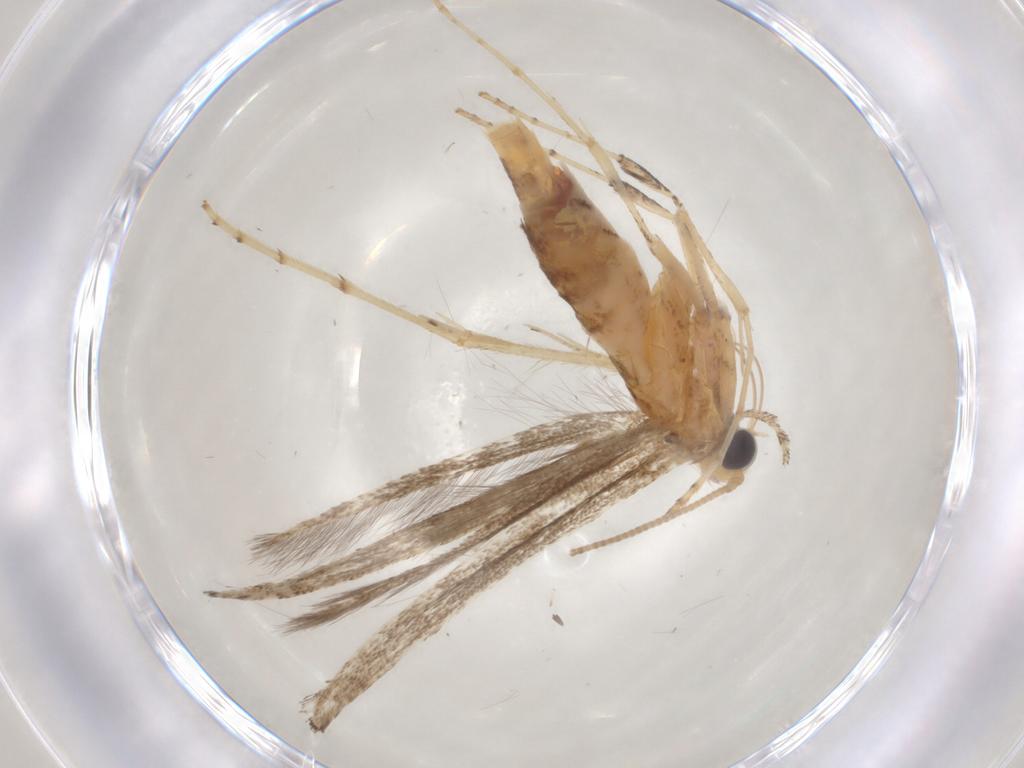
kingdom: Animalia
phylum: Arthropoda
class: Insecta
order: Lepidoptera
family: Gracillariidae
